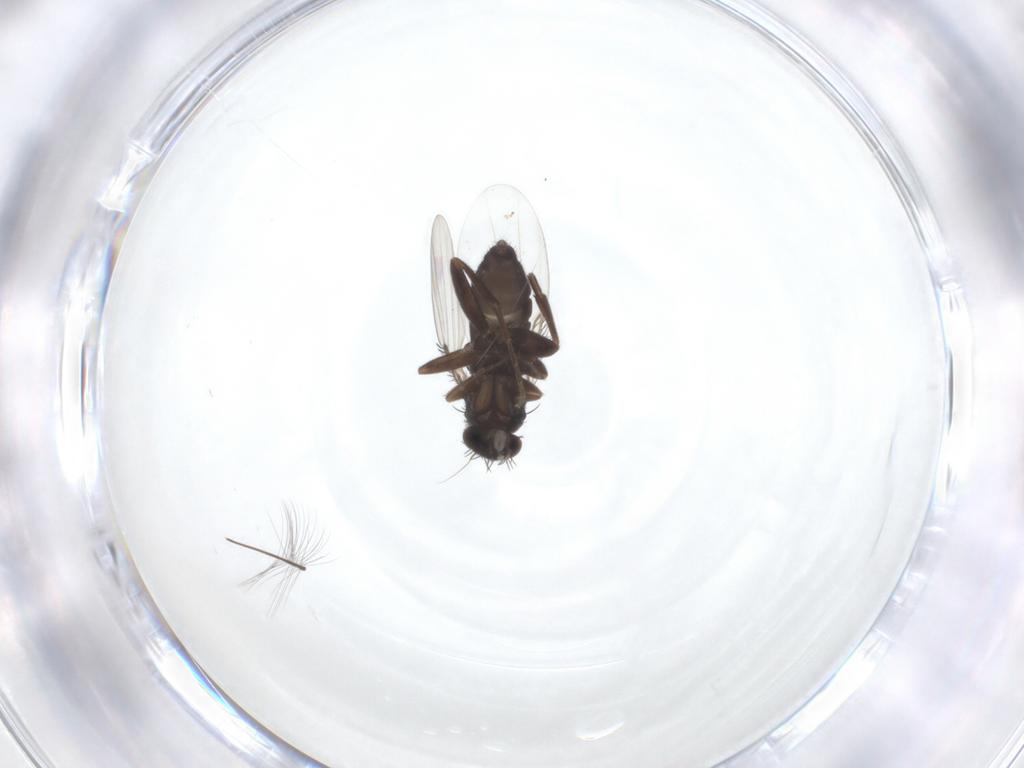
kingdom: Animalia
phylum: Arthropoda
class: Insecta
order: Diptera
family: Phoridae
